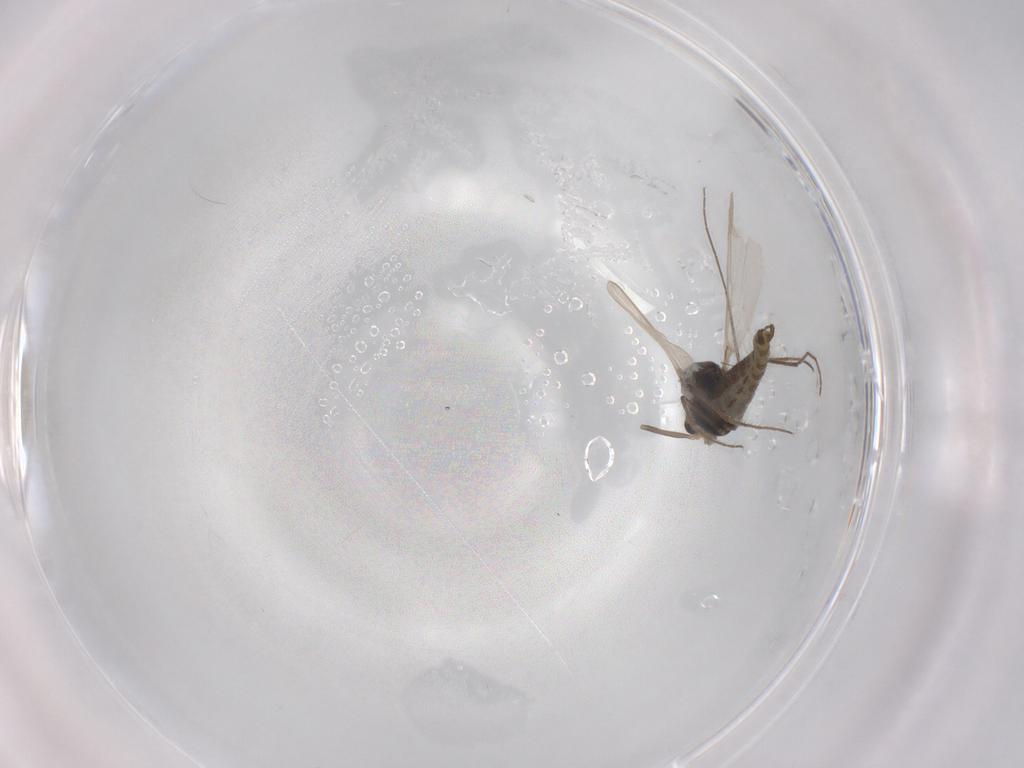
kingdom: Animalia
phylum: Arthropoda
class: Insecta
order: Diptera
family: Chironomidae
